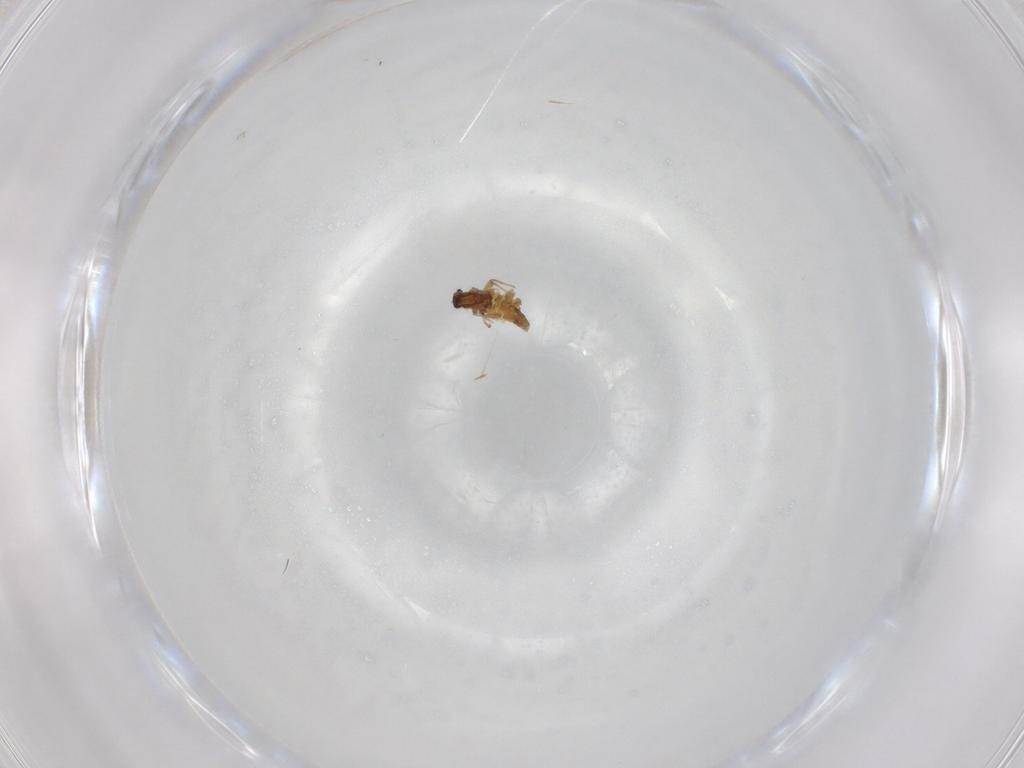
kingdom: Animalia
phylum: Arthropoda
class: Insecta
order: Diptera
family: Chironomidae
